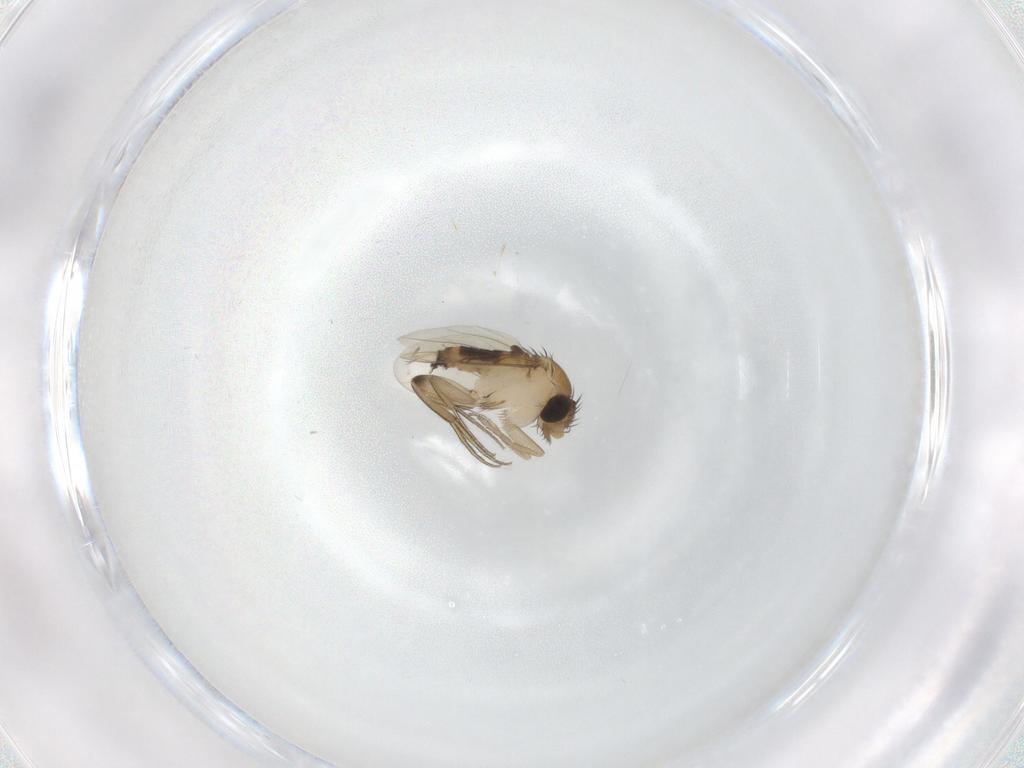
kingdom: Animalia
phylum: Arthropoda
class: Insecta
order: Diptera
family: Phoridae
